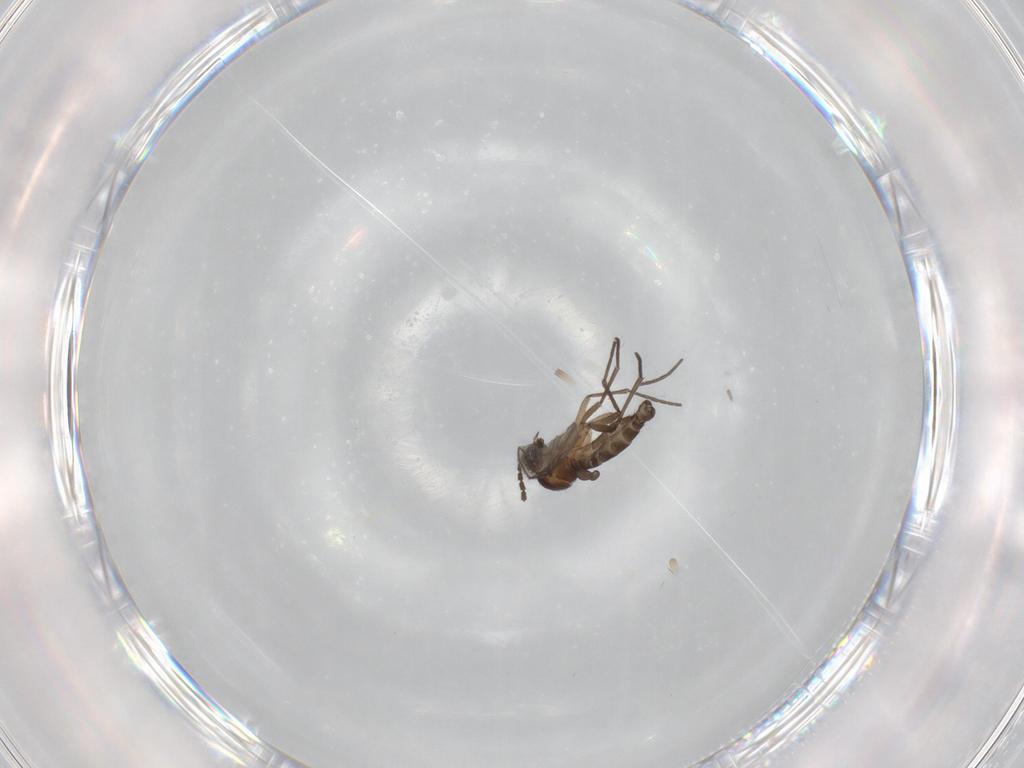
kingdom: Animalia
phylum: Arthropoda
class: Insecta
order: Diptera
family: Sciaridae
